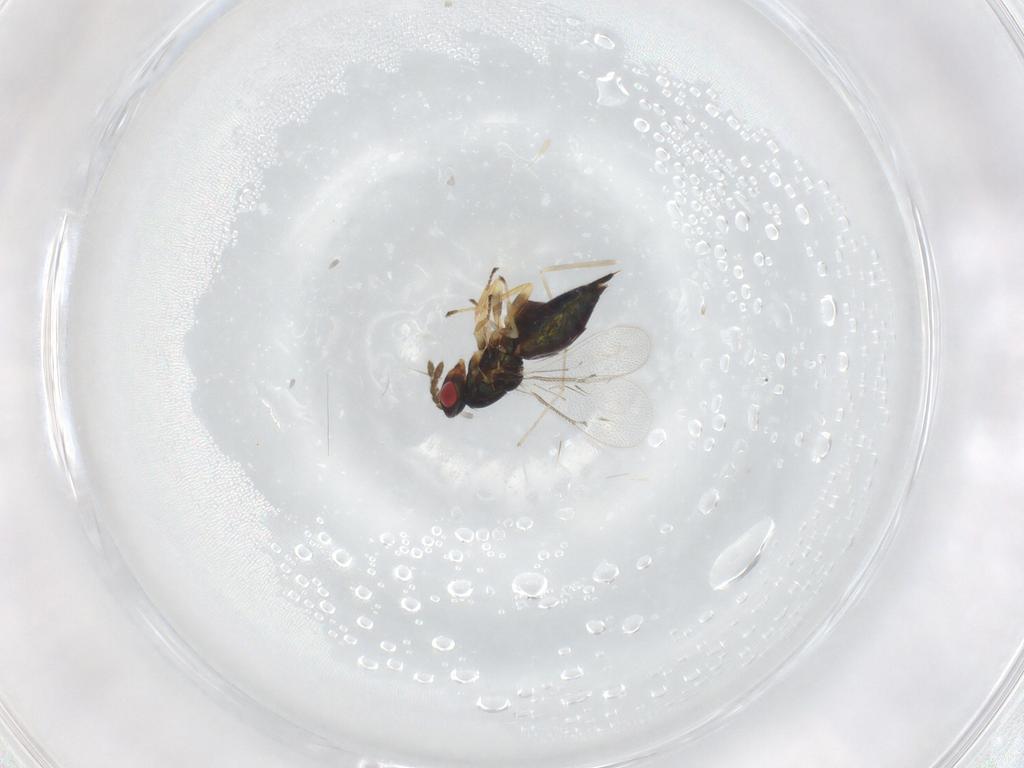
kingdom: Animalia
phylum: Arthropoda
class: Insecta
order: Hymenoptera
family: Eulophidae
